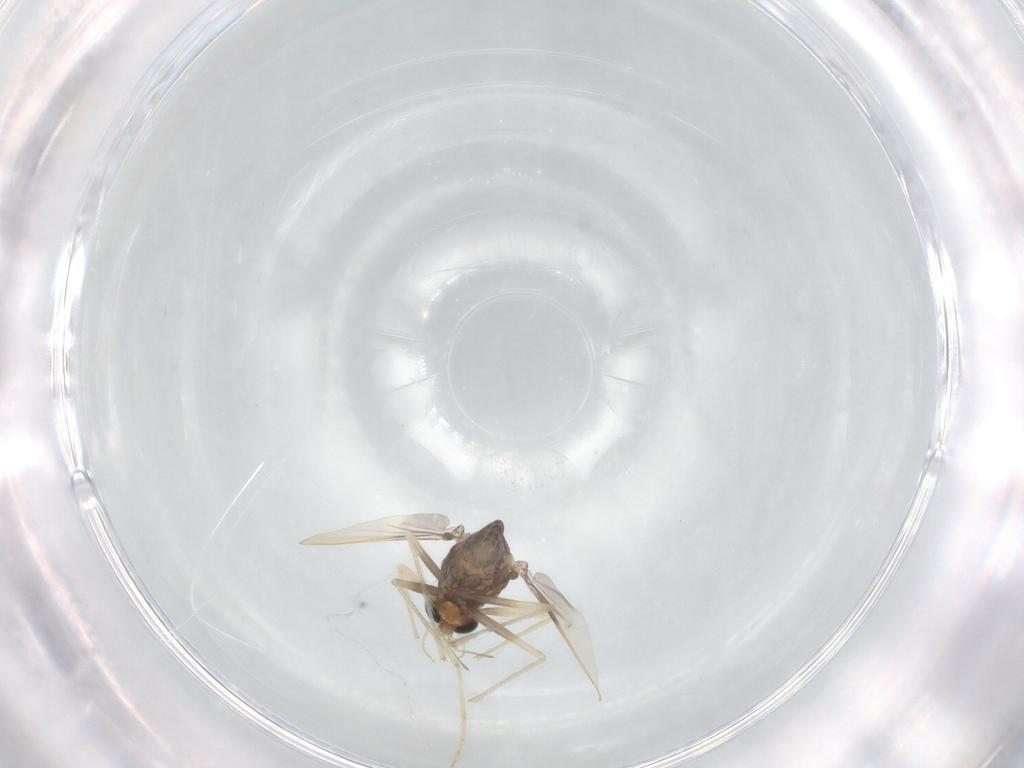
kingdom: Animalia
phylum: Arthropoda
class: Insecta
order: Diptera
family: Chironomidae
